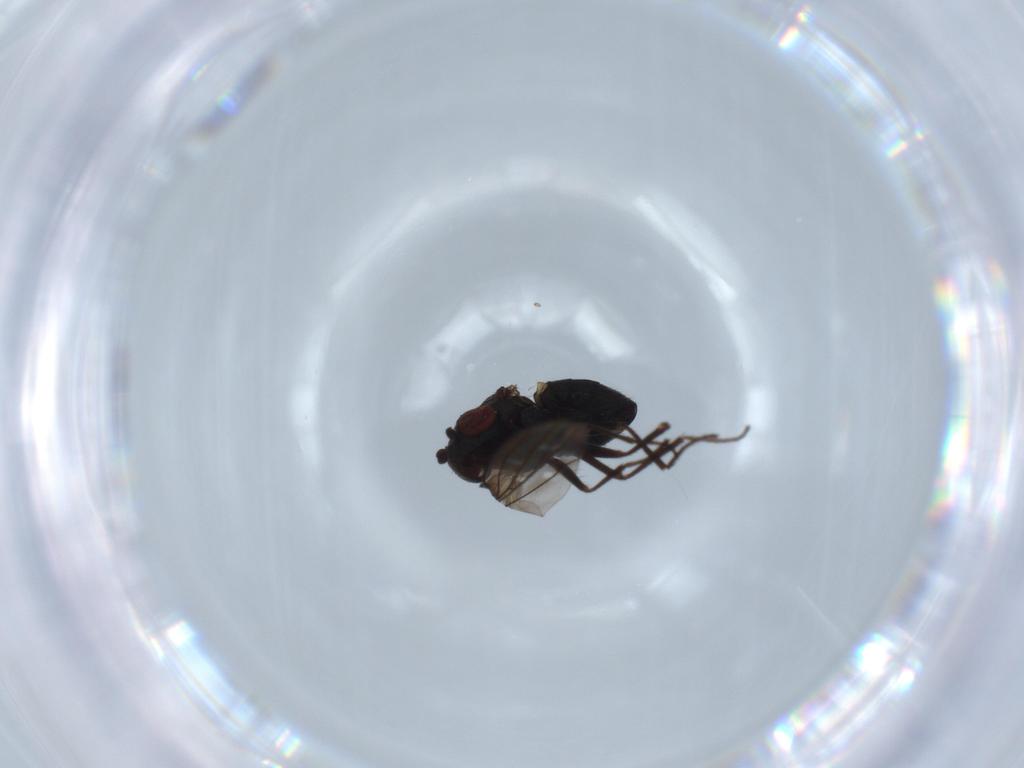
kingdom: Animalia
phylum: Arthropoda
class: Insecta
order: Diptera
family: Ephydridae
